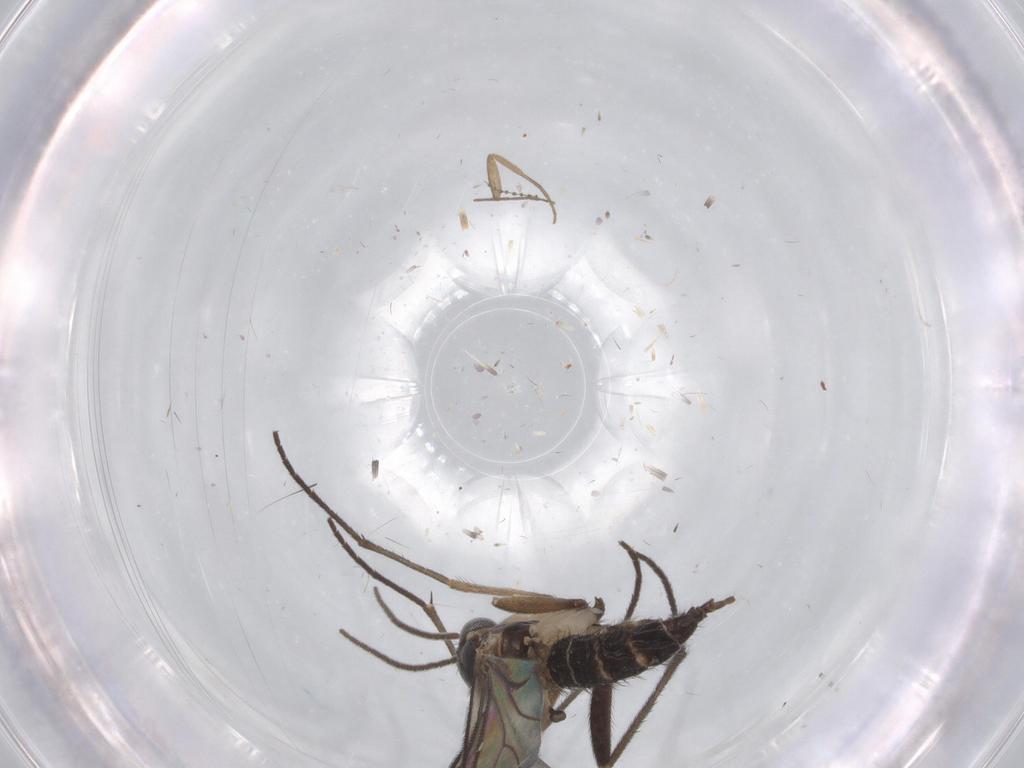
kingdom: Animalia
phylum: Arthropoda
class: Insecta
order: Diptera
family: Sciaridae
